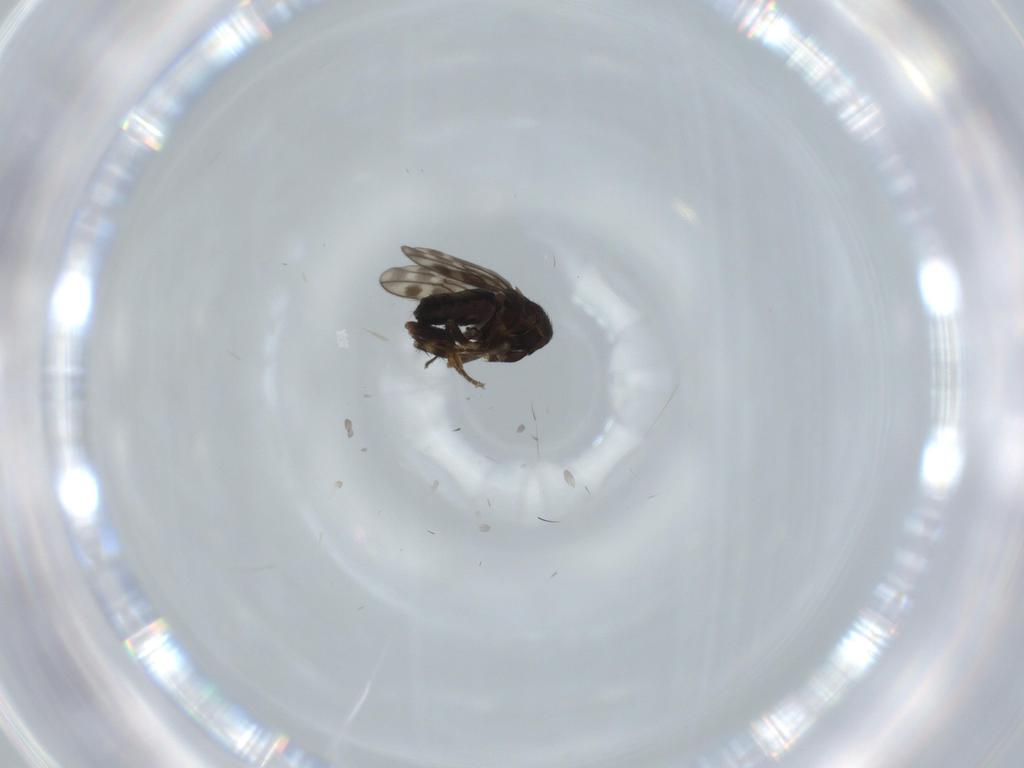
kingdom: Animalia
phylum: Arthropoda
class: Insecta
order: Diptera
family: Sphaeroceridae
